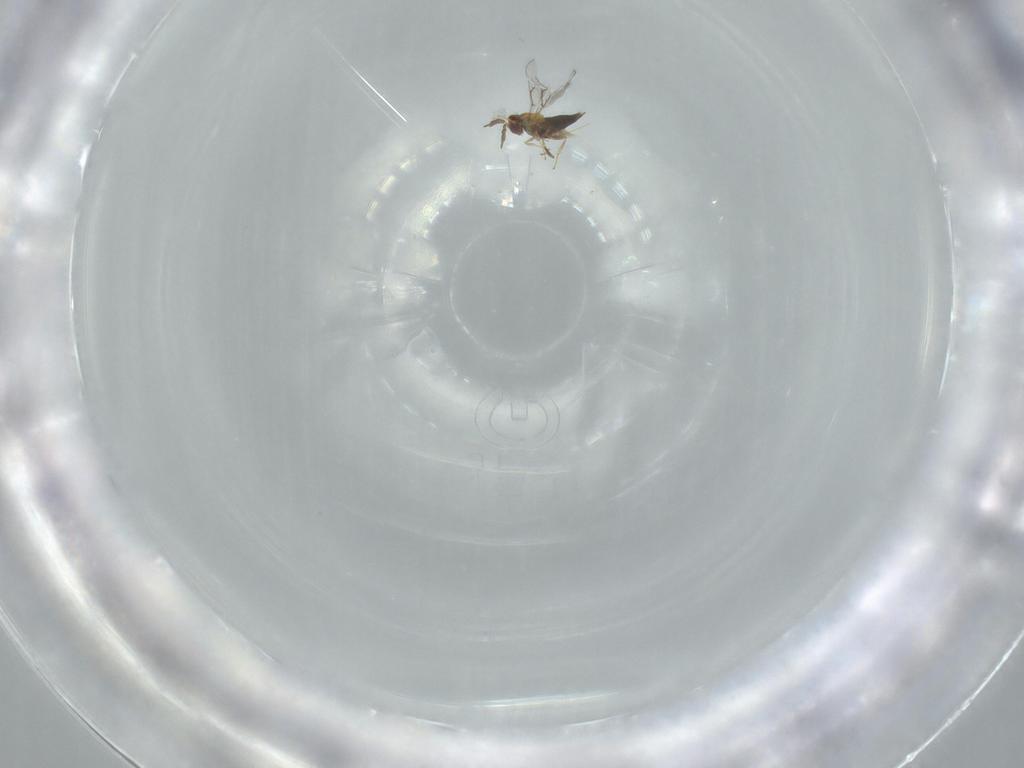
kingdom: Animalia
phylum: Arthropoda
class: Insecta
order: Hymenoptera
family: Trichogrammatidae
